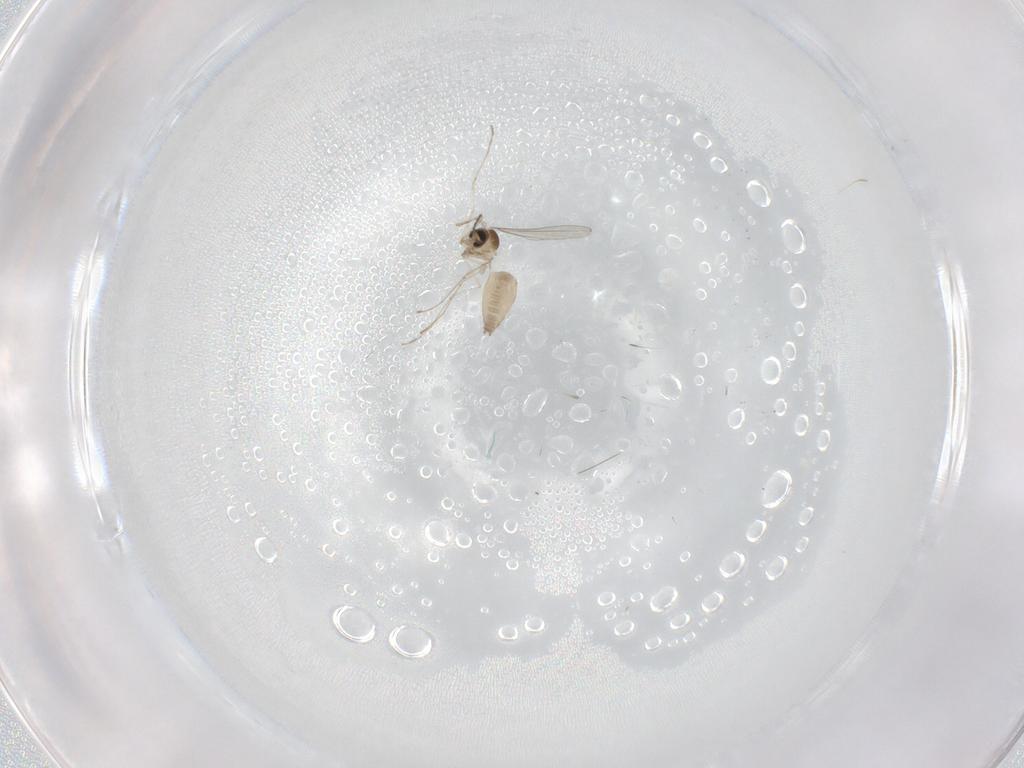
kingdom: Animalia
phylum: Arthropoda
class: Insecta
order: Diptera
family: Cecidomyiidae
